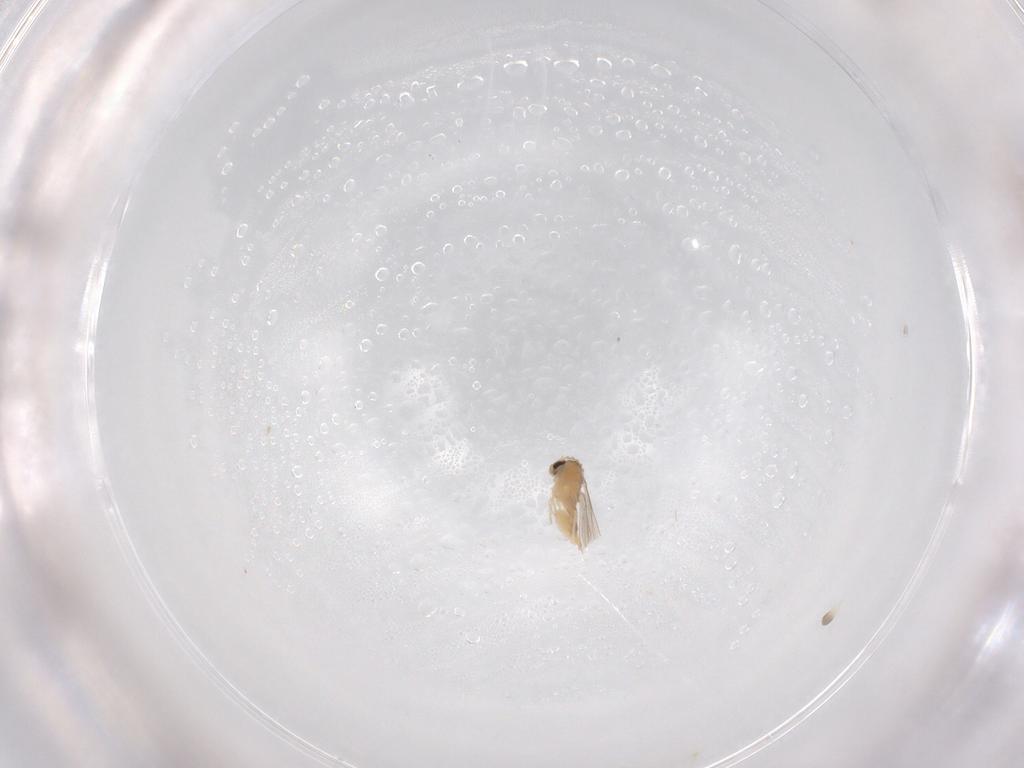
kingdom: Animalia
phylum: Arthropoda
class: Insecta
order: Diptera
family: Cecidomyiidae
